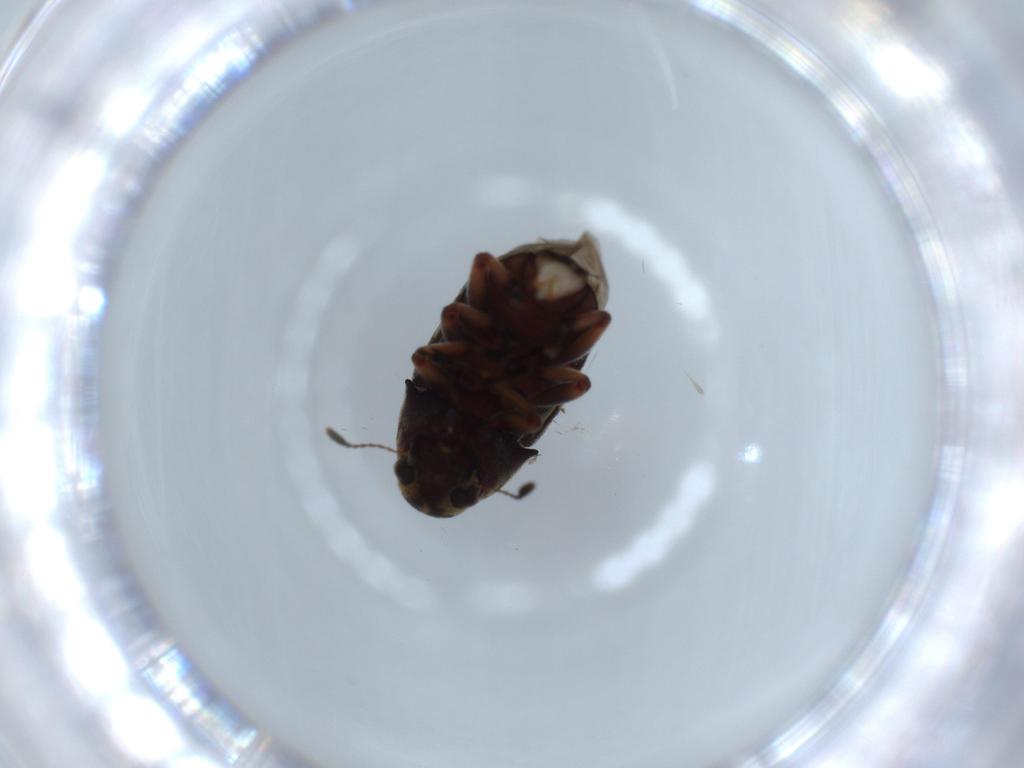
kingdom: Animalia
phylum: Arthropoda
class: Insecta
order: Coleoptera
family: Anthribidae
